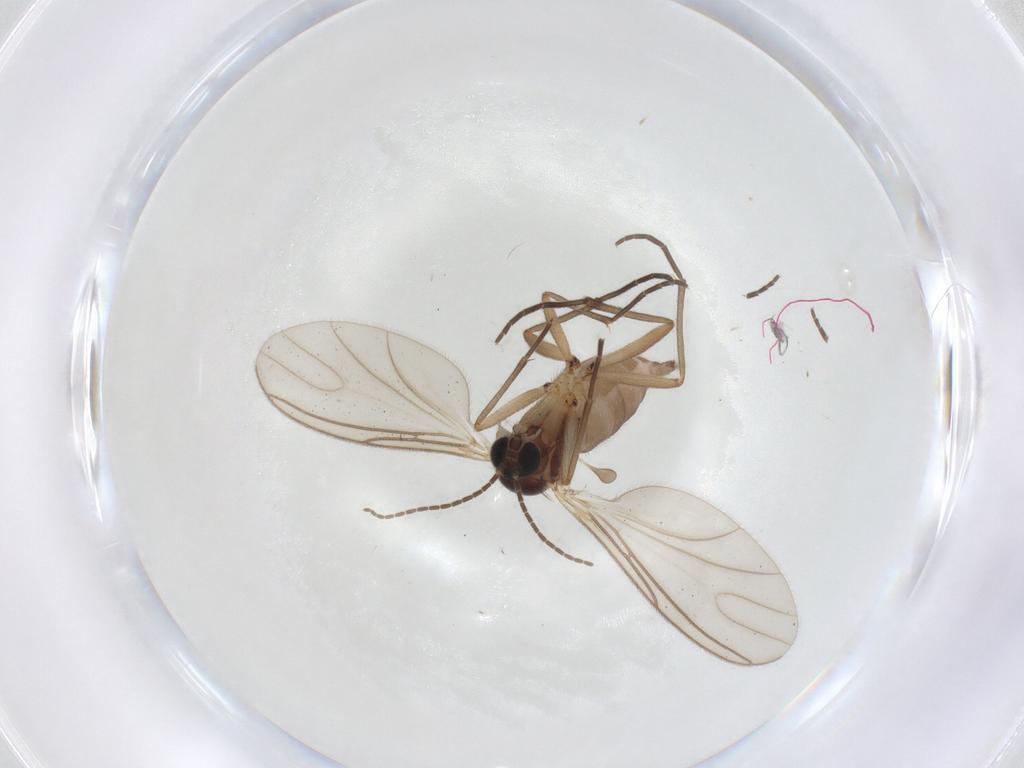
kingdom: Animalia
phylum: Arthropoda
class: Insecta
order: Diptera
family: Sciaridae
